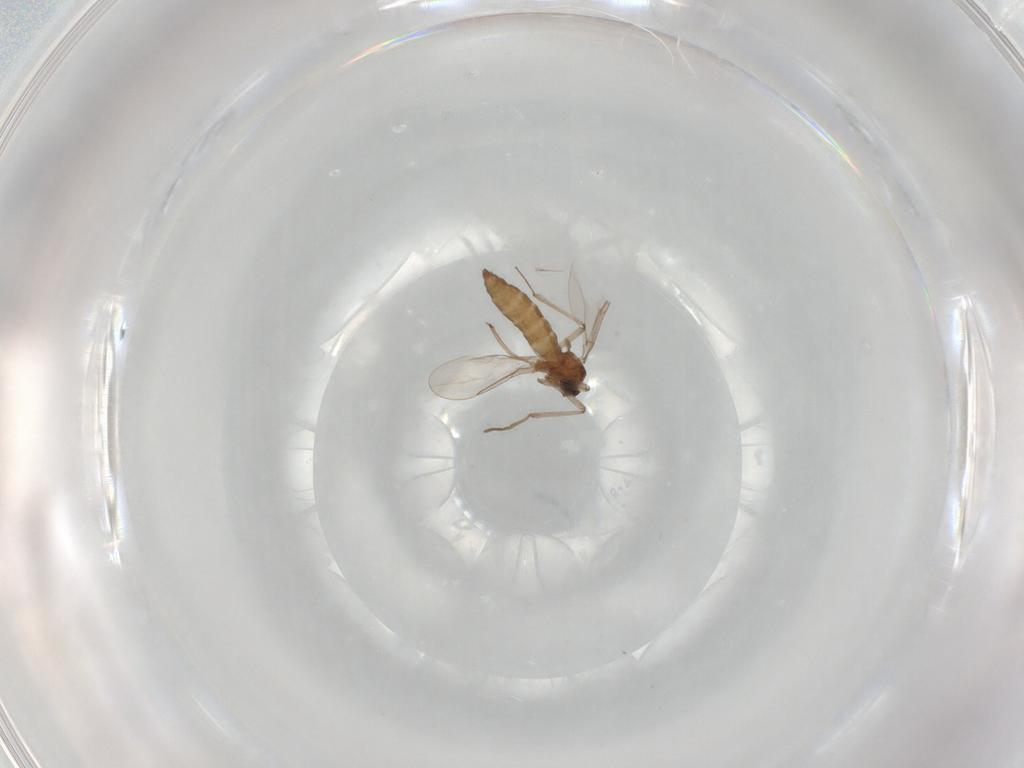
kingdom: Animalia
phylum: Arthropoda
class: Insecta
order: Diptera
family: Cecidomyiidae
